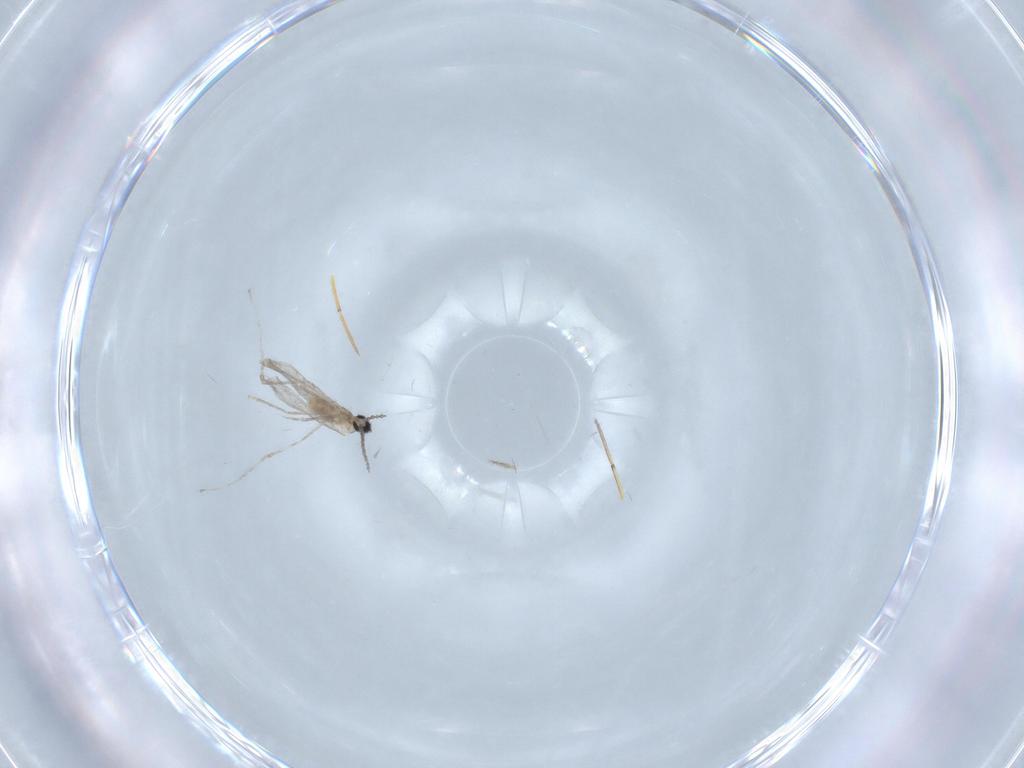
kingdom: Animalia
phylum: Arthropoda
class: Insecta
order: Diptera
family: Cecidomyiidae
